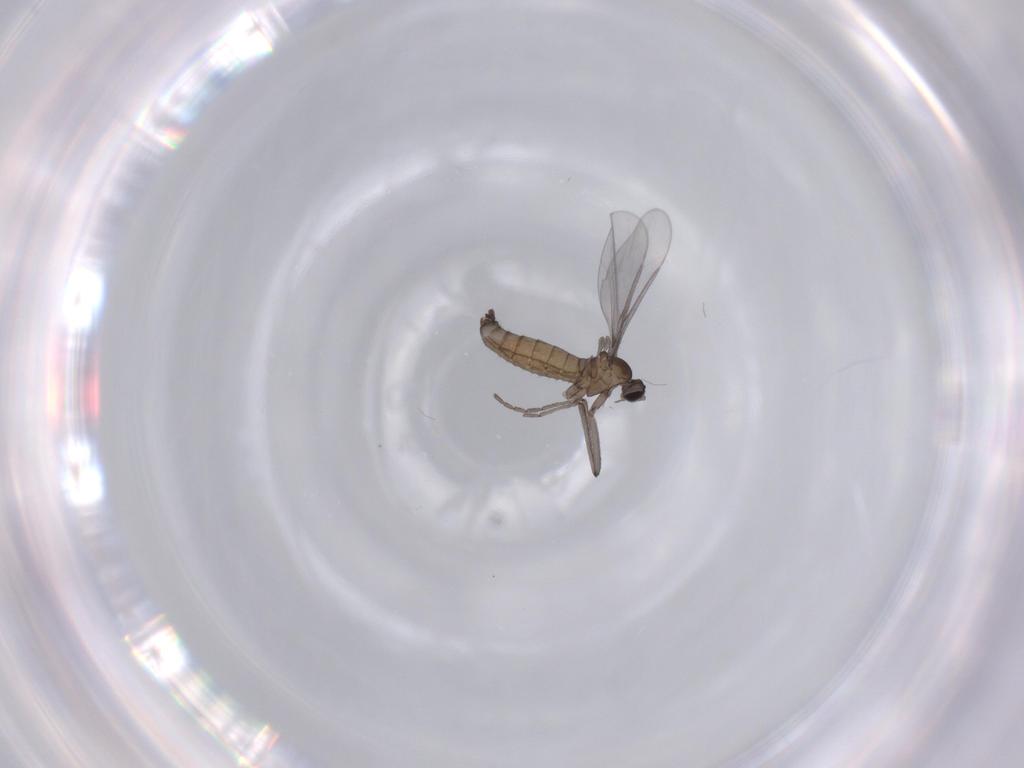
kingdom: Animalia
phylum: Arthropoda
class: Insecta
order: Diptera
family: Cecidomyiidae
